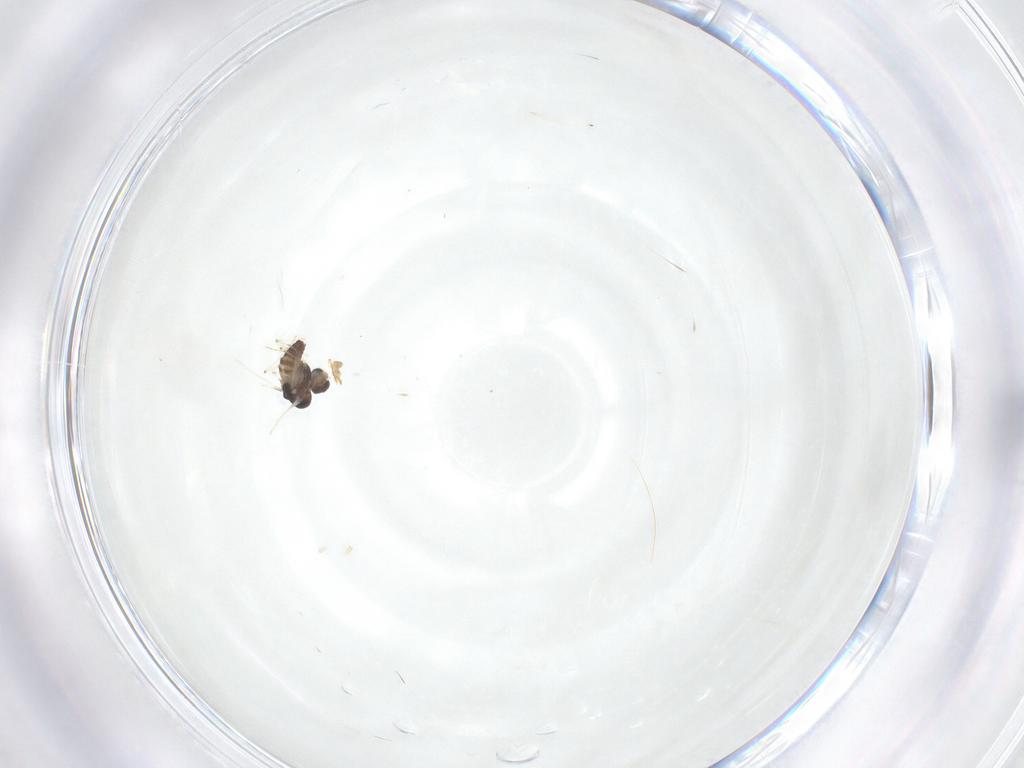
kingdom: Animalia
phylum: Arthropoda
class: Insecta
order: Diptera
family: Ceratopogonidae
